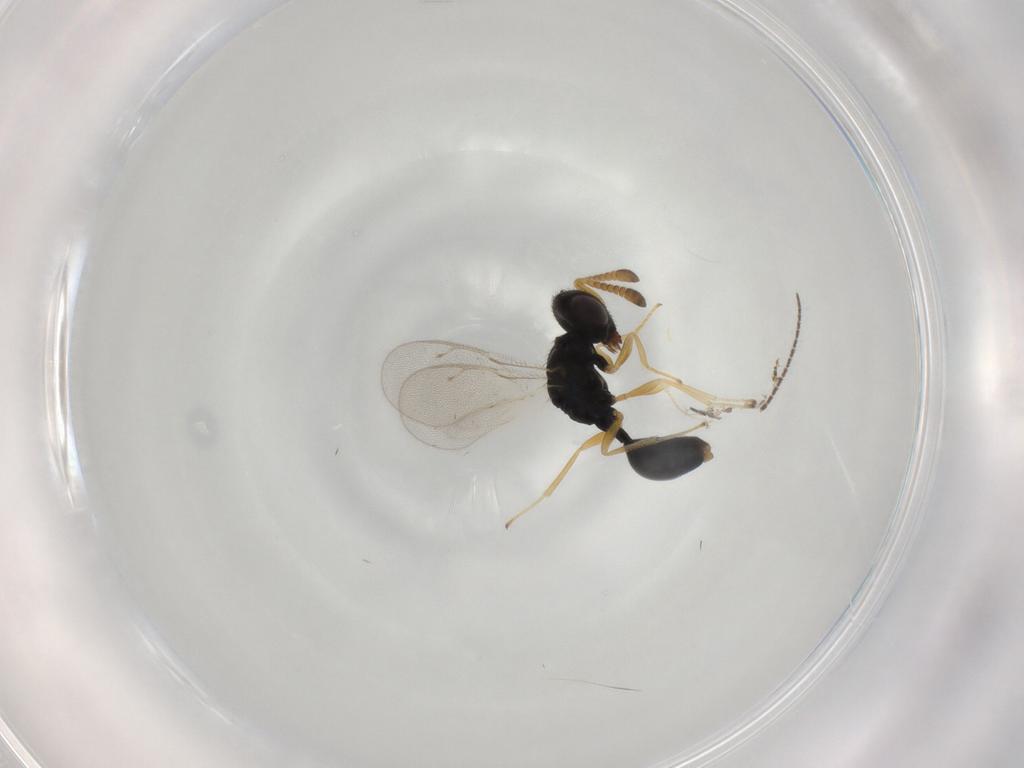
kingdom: Animalia
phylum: Arthropoda
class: Insecta
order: Hymenoptera
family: Pteromalidae
